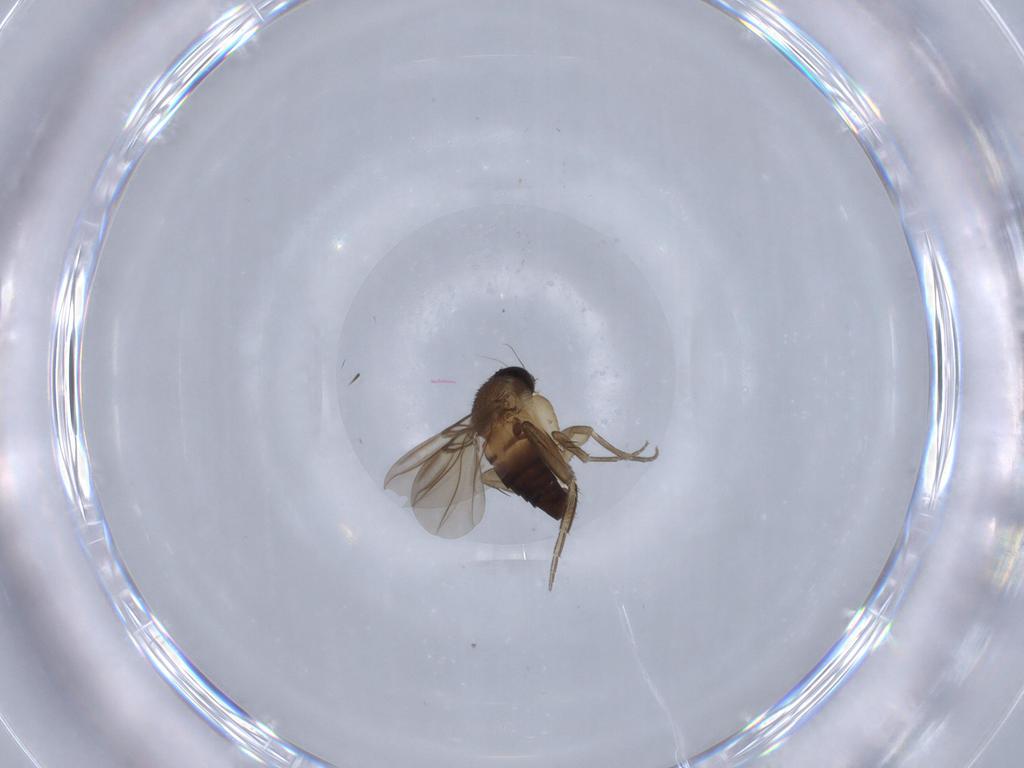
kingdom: Animalia
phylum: Arthropoda
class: Insecta
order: Diptera
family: Phoridae
